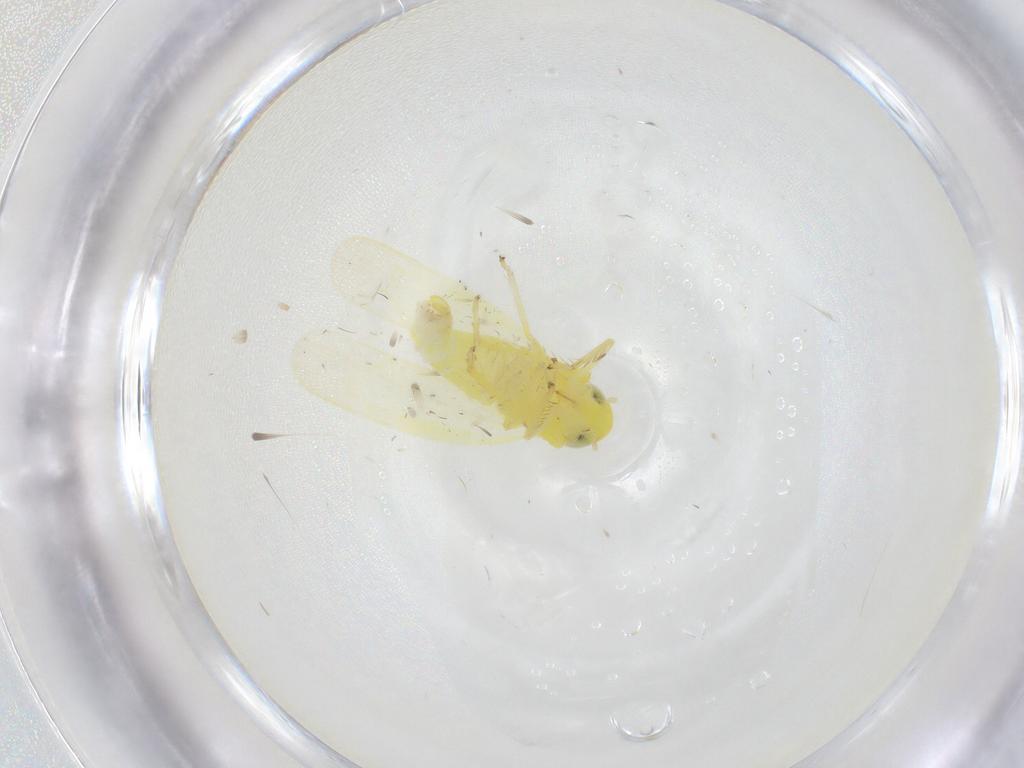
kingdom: Animalia
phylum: Arthropoda
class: Insecta
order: Hemiptera
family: Cicadellidae
